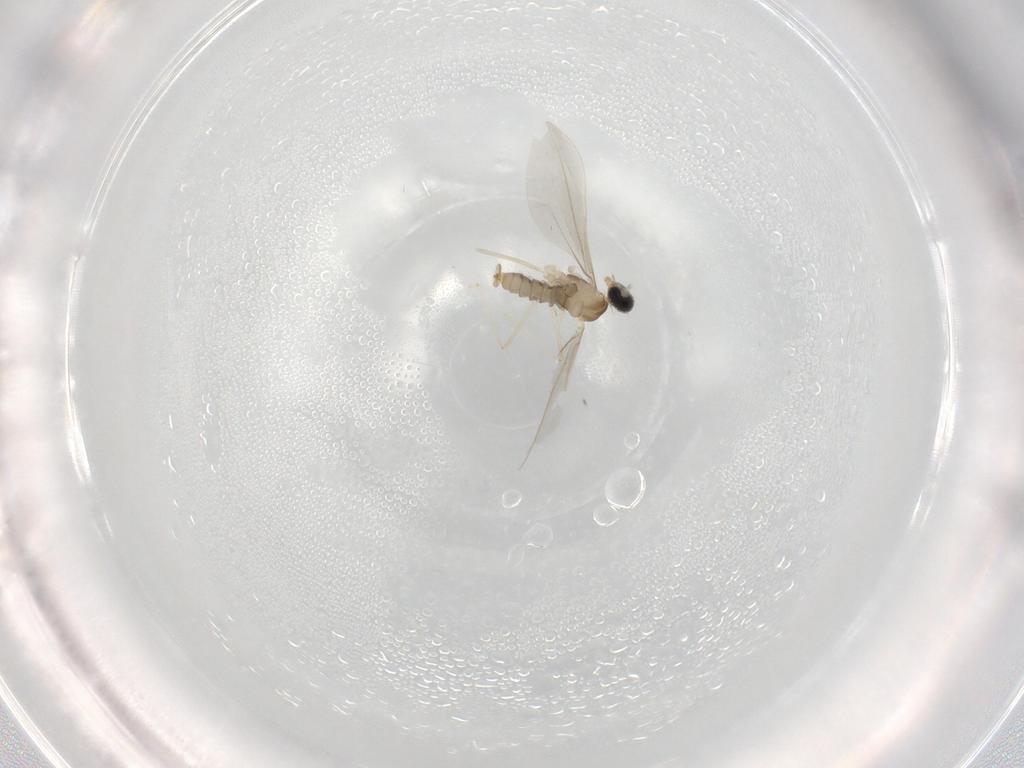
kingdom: Animalia
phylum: Arthropoda
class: Insecta
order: Diptera
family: Cecidomyiidae
